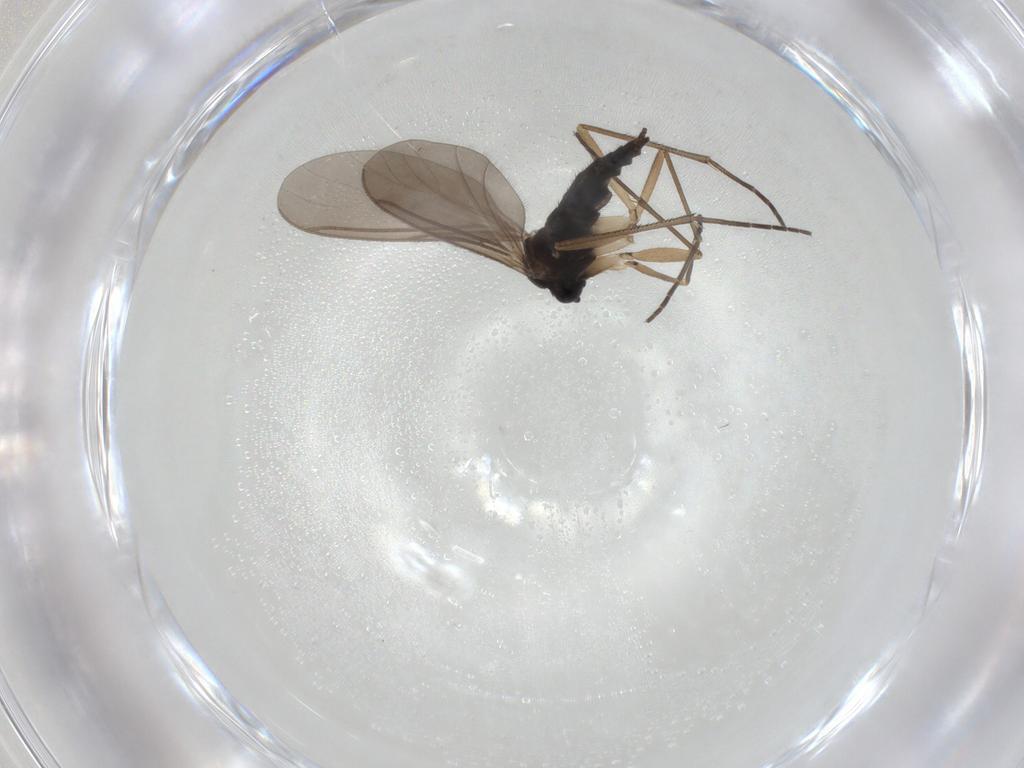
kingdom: Animalia
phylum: Arthropoda
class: Insecta
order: Diptera
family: Sciaridae
